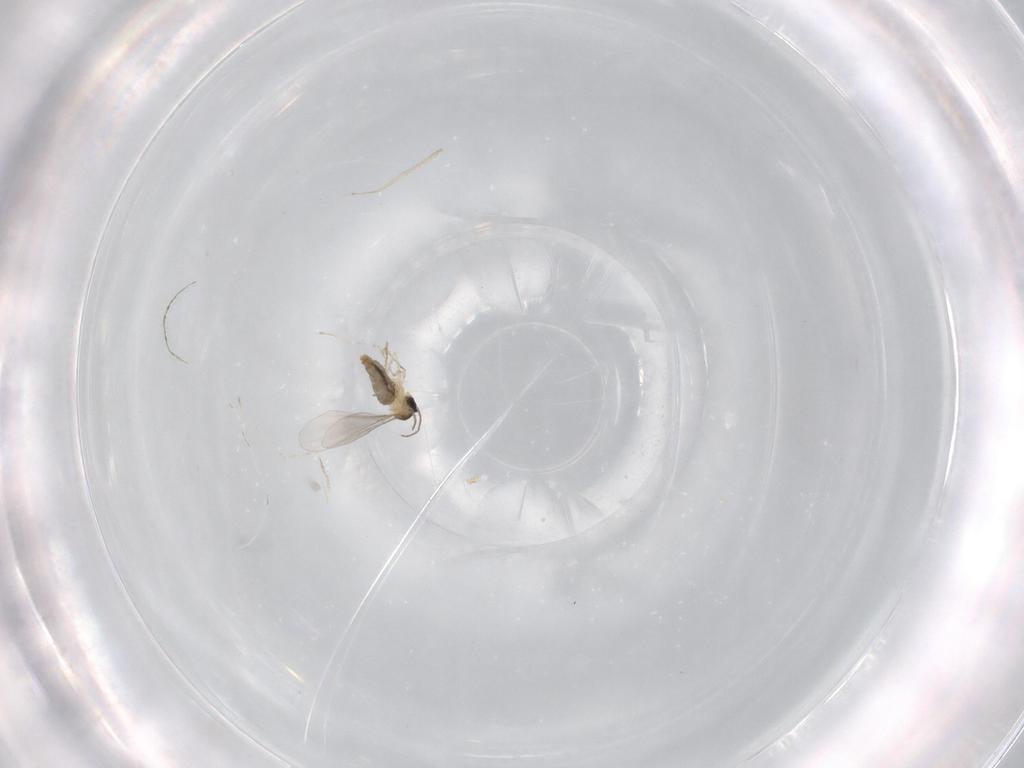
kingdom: Animalia
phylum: Arthropoda
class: Insecta
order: Diptera
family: Cecidomyiidae
